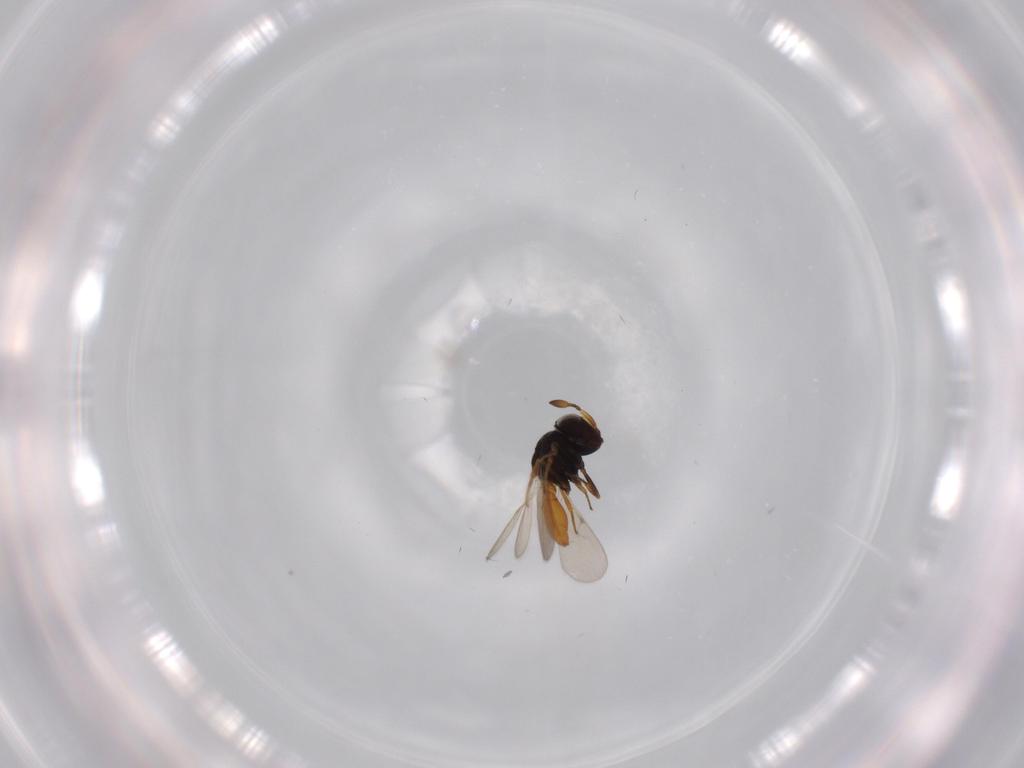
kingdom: Animalia
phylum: Arthropoda
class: Insecta
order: Hymenoptera
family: Scelionidae
